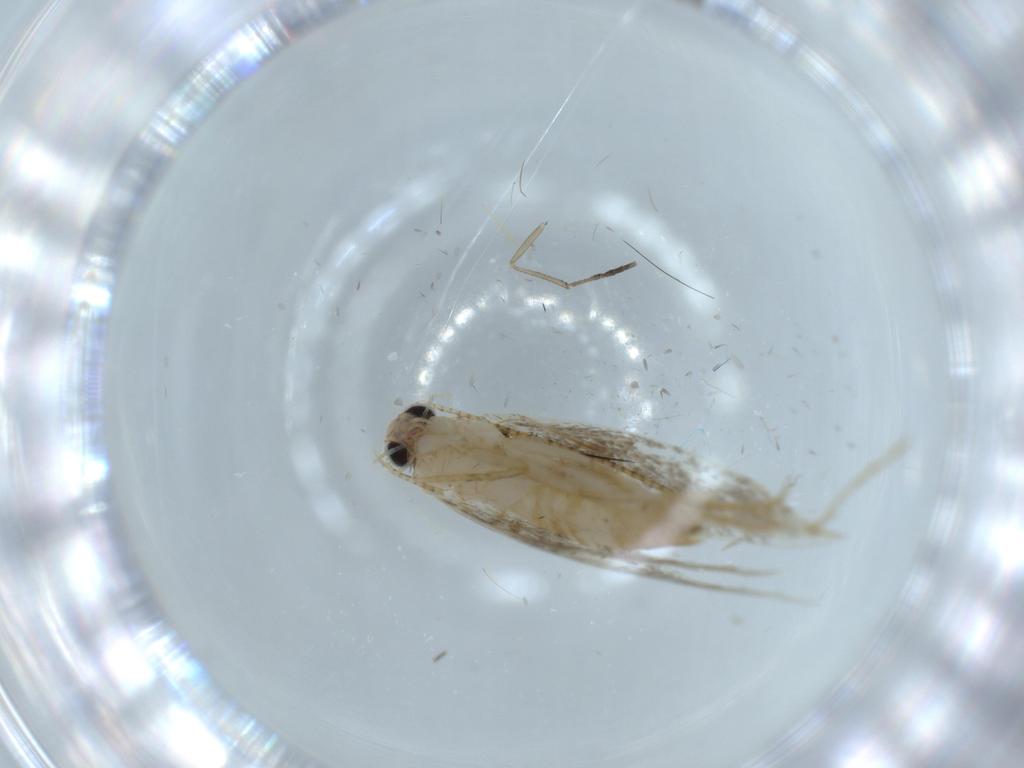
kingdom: Animalia
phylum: Arthropoda
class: Insecta
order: Lepidoptera
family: Tineidae
